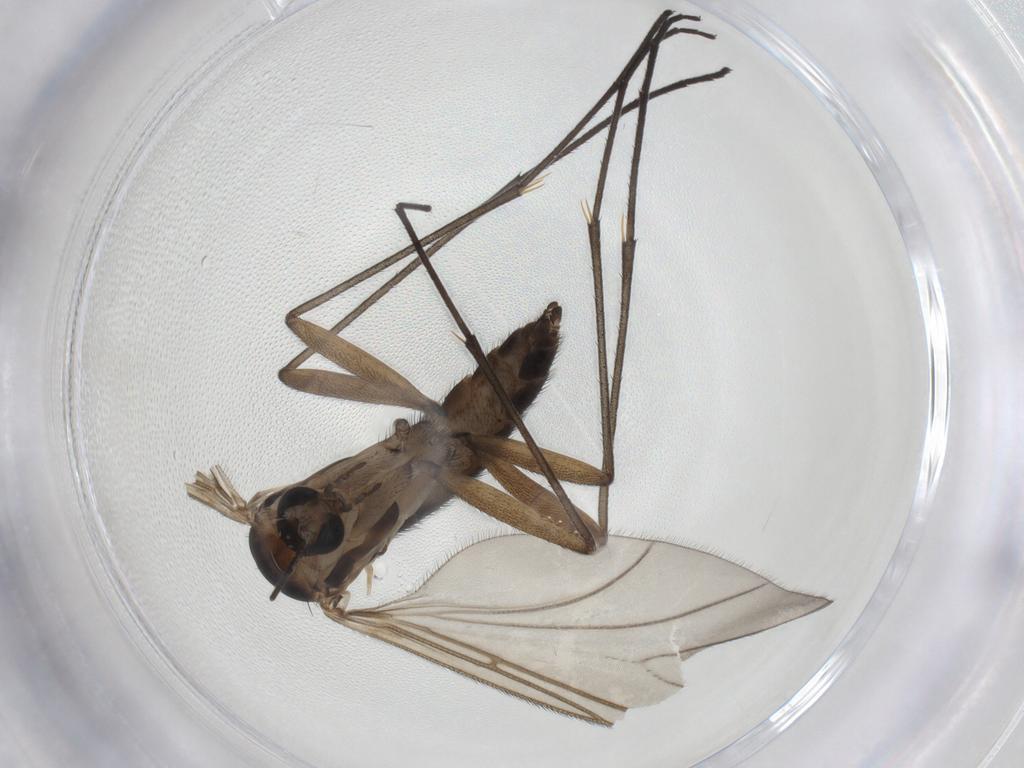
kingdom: Animalia
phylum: Arthropoda
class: Insecta
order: Diptera
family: Sciaridae
